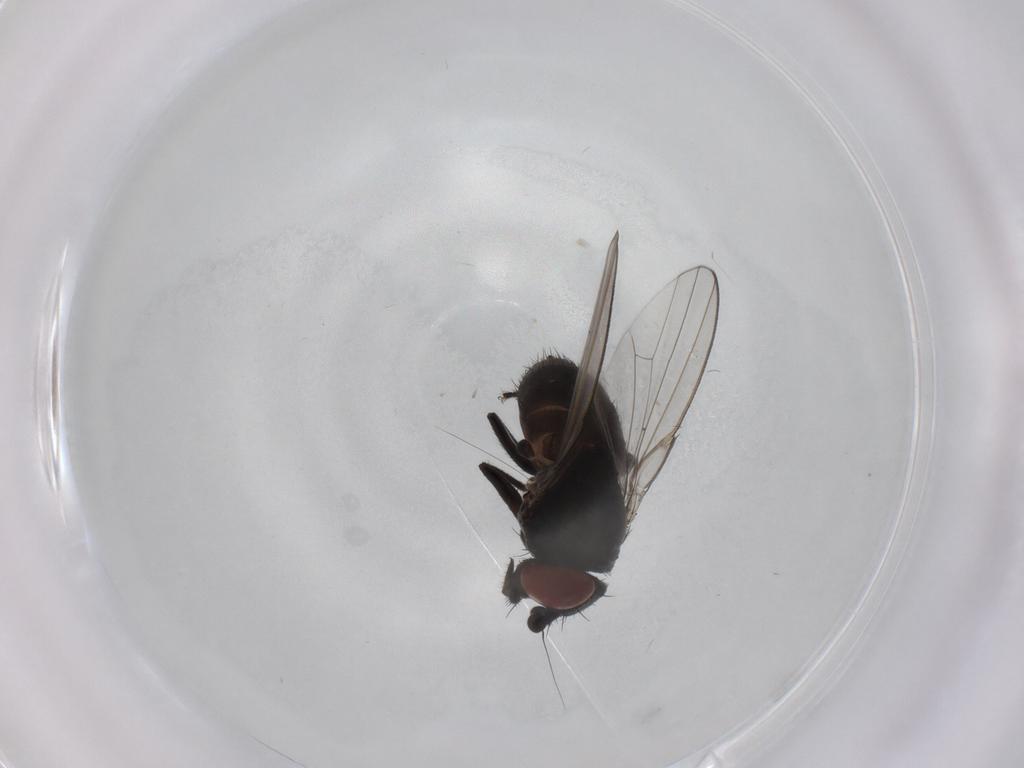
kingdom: Animalia
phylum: Arthropoda
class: Insecta
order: Diptera
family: Milichiidae
